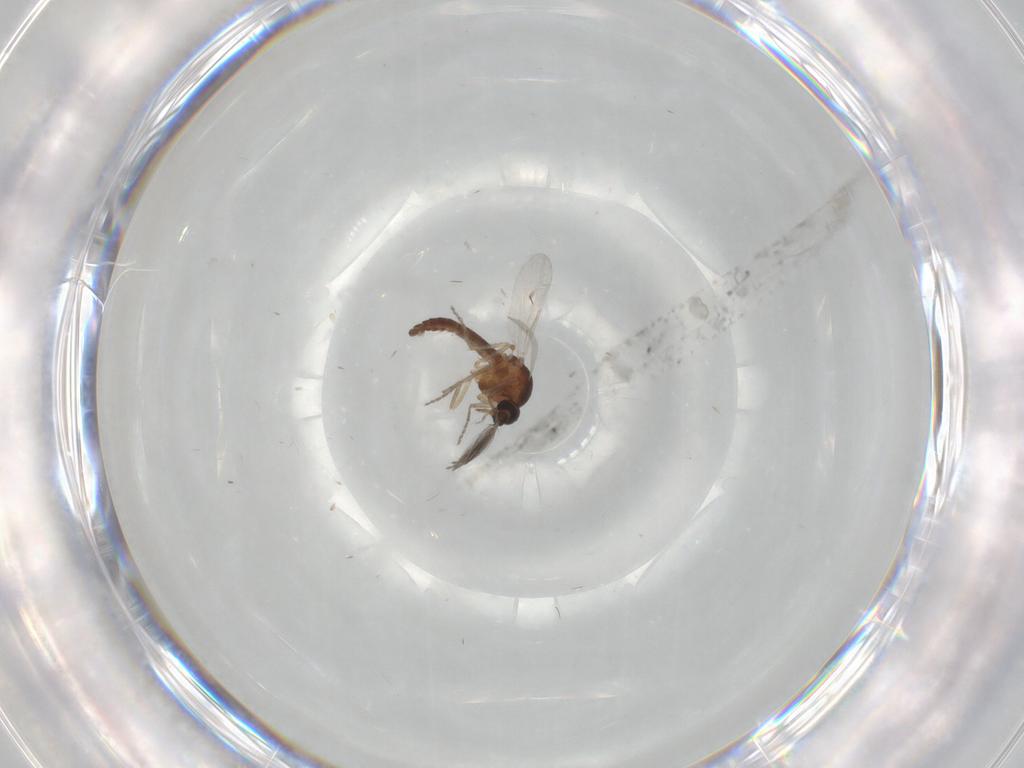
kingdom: Animalia
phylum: Arthropoda
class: Insecta
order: Diptera
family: Ceratopogonidae
